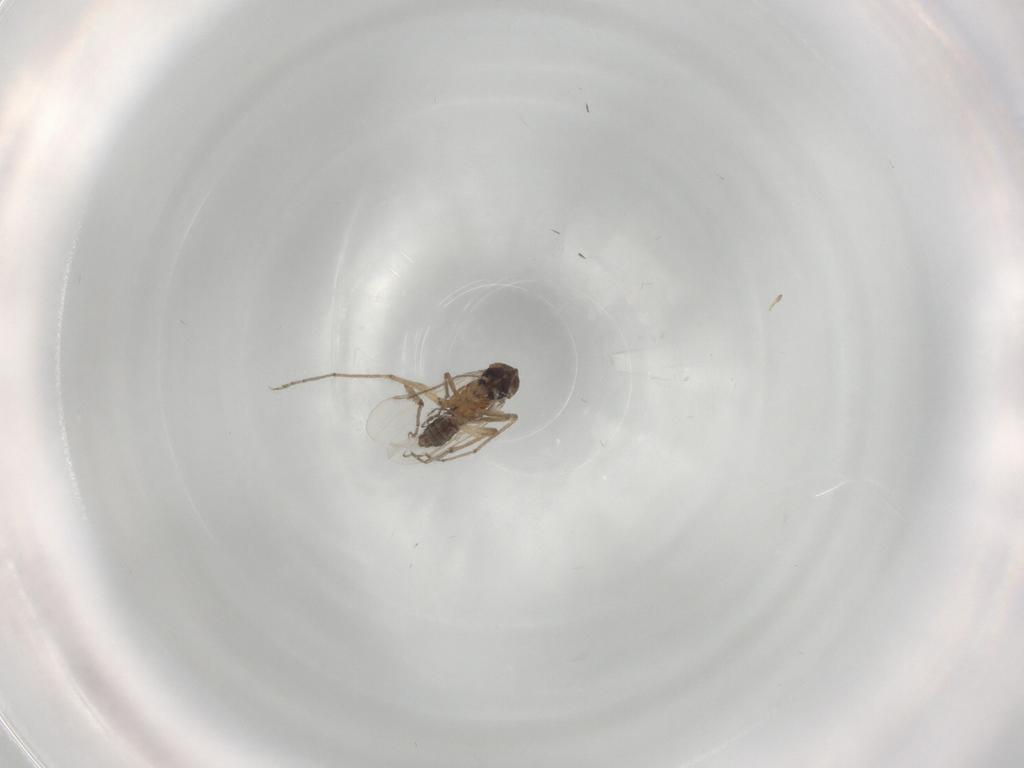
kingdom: Animalia
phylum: Arthropoda
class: Insecta
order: Diptera
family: Ceratopogonidae
